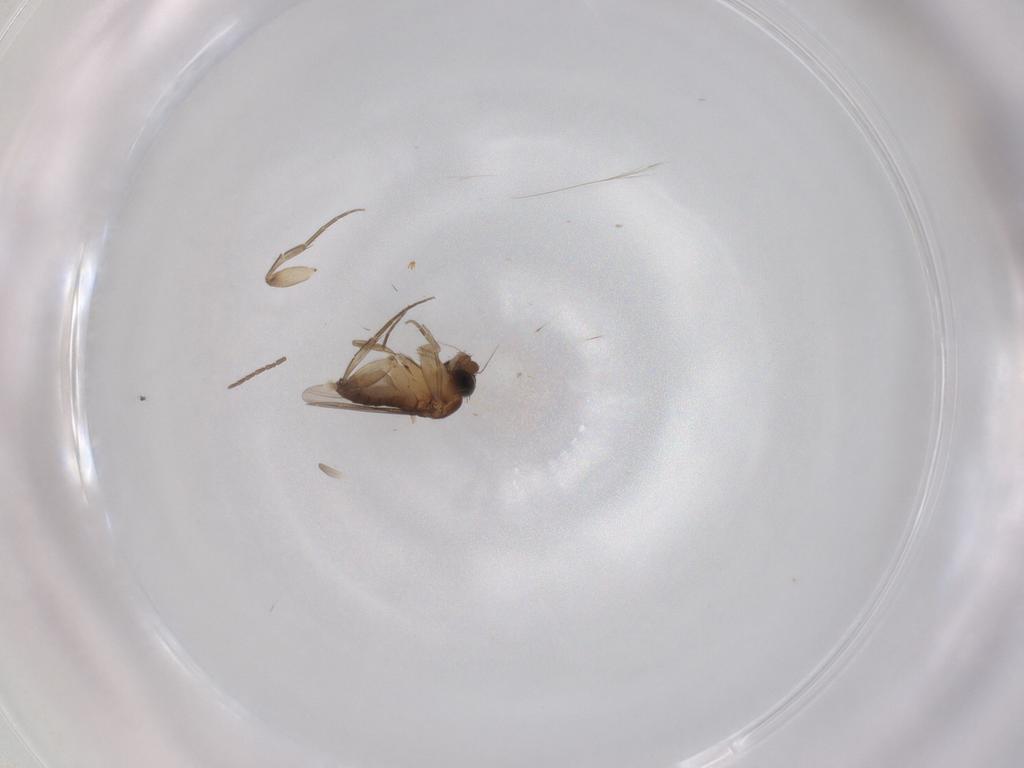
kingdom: Animalia
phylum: Arthropoda
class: Insecta
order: Diptera
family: Phoridae
